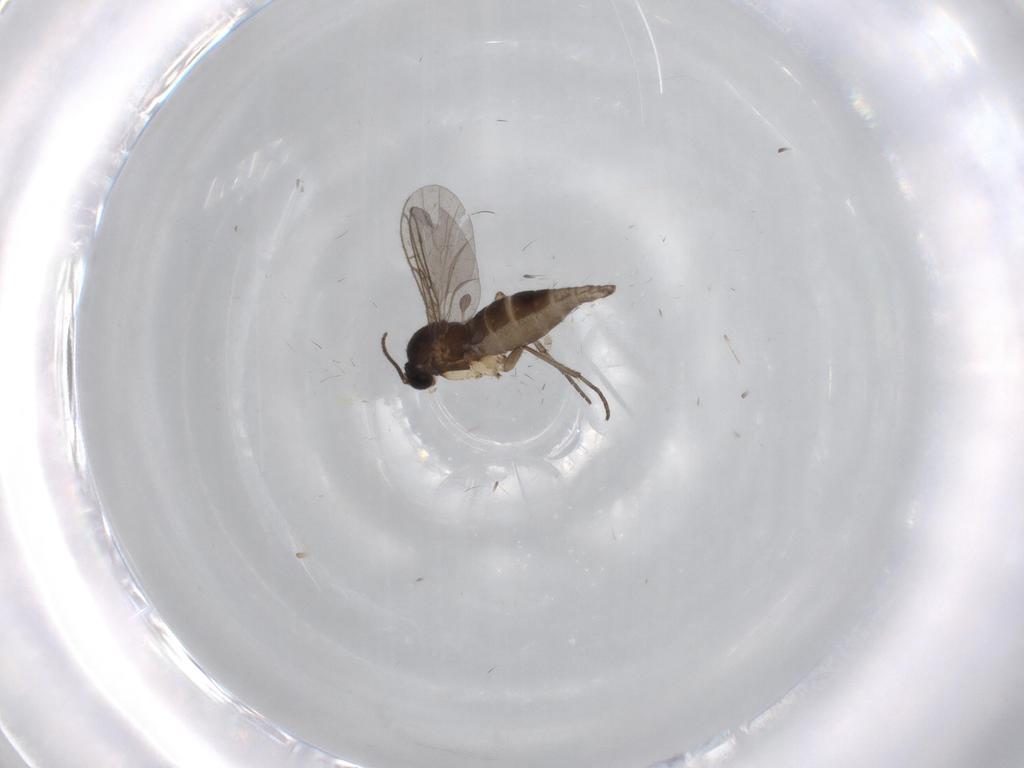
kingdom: Animalia
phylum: Arthropoda
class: Insecta
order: Diptera
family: Sciaridae
